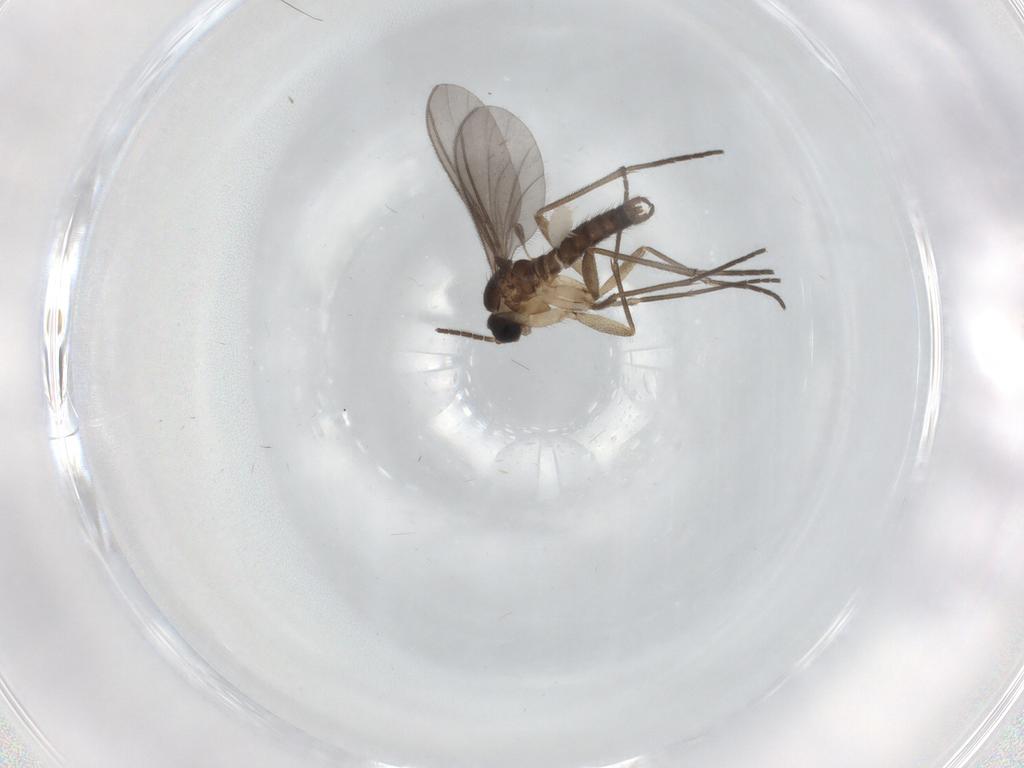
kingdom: Animalia
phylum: Arthropoda
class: Insecta
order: Diptera
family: Sciaridae
